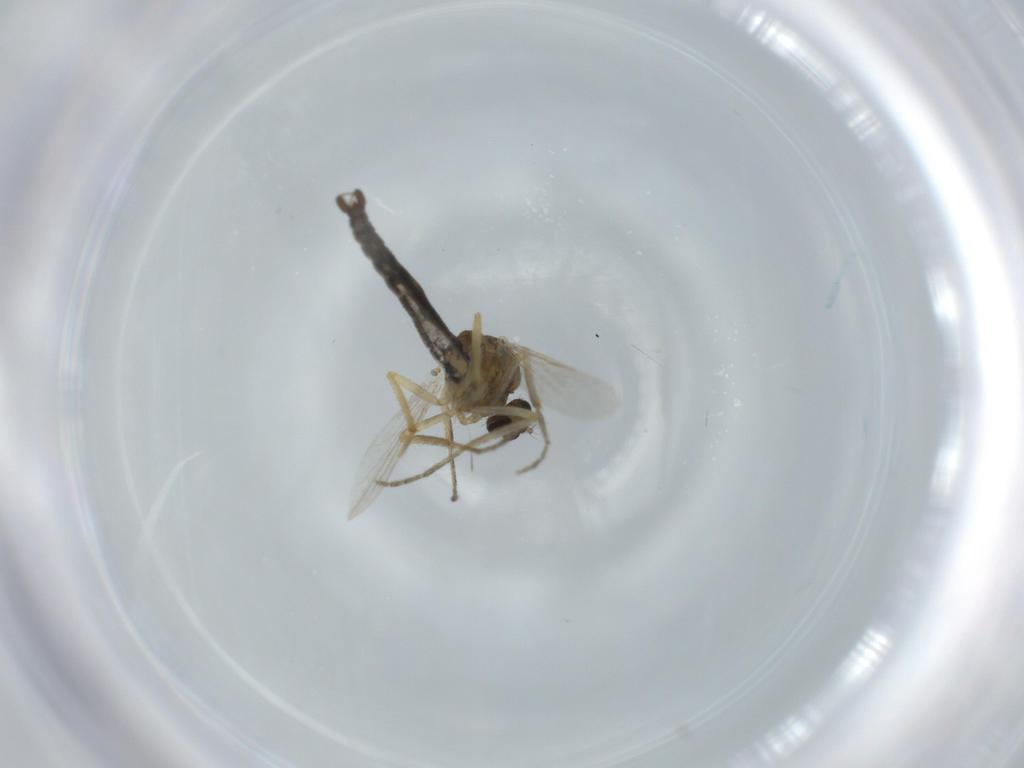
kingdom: Animalia
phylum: Arthropoda
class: Insecta
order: Diptera
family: Ceratopogonidae
